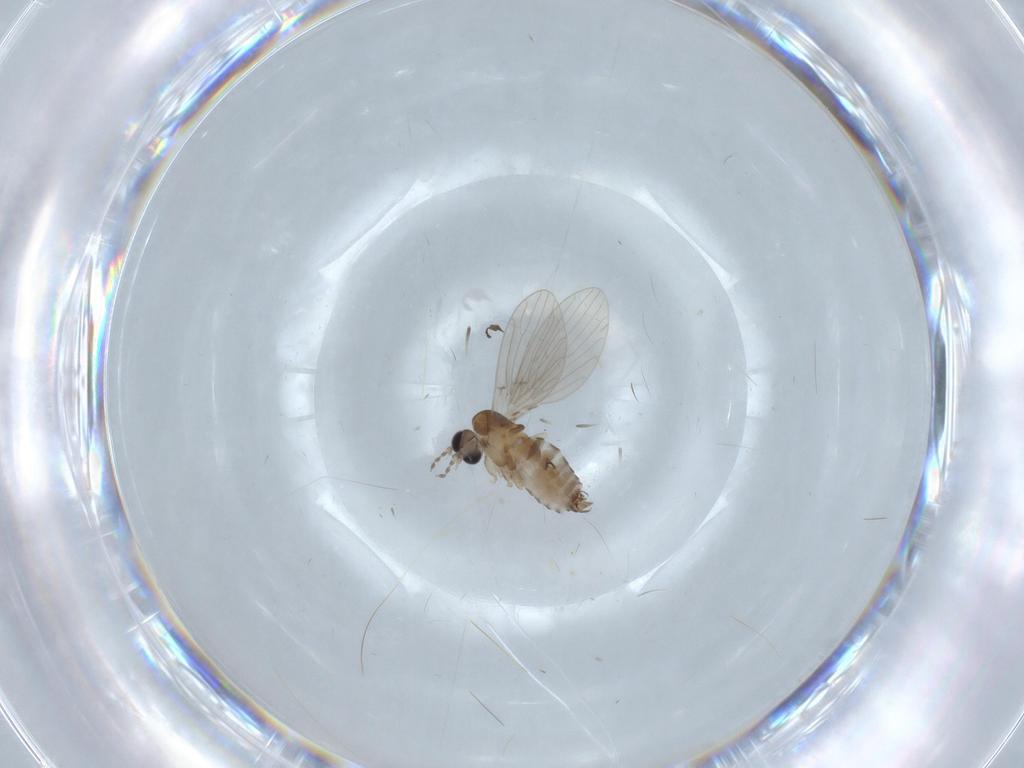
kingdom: Animalia
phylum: Arthropoda
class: Insecta
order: Diptera
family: Psychodidae
